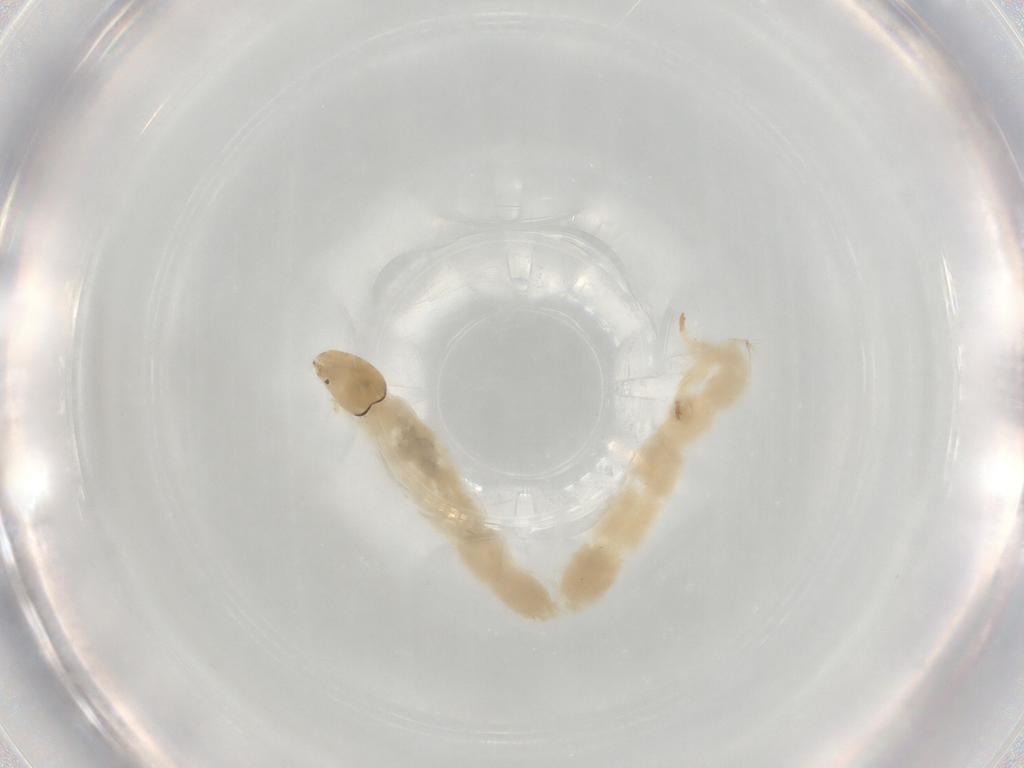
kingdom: Animalia
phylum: Arthropoda
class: Insecta
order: Diptera
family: Chironomidae
